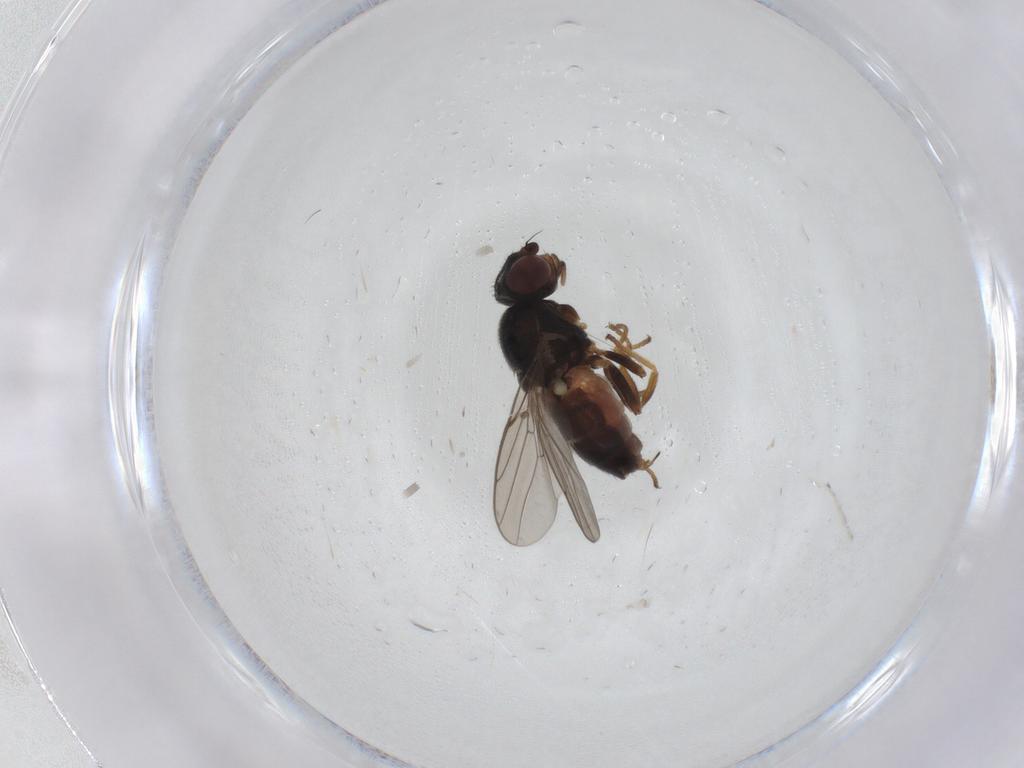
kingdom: Animalia
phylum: Arthropoda
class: Insecta
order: Diptera
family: Chloropidae
